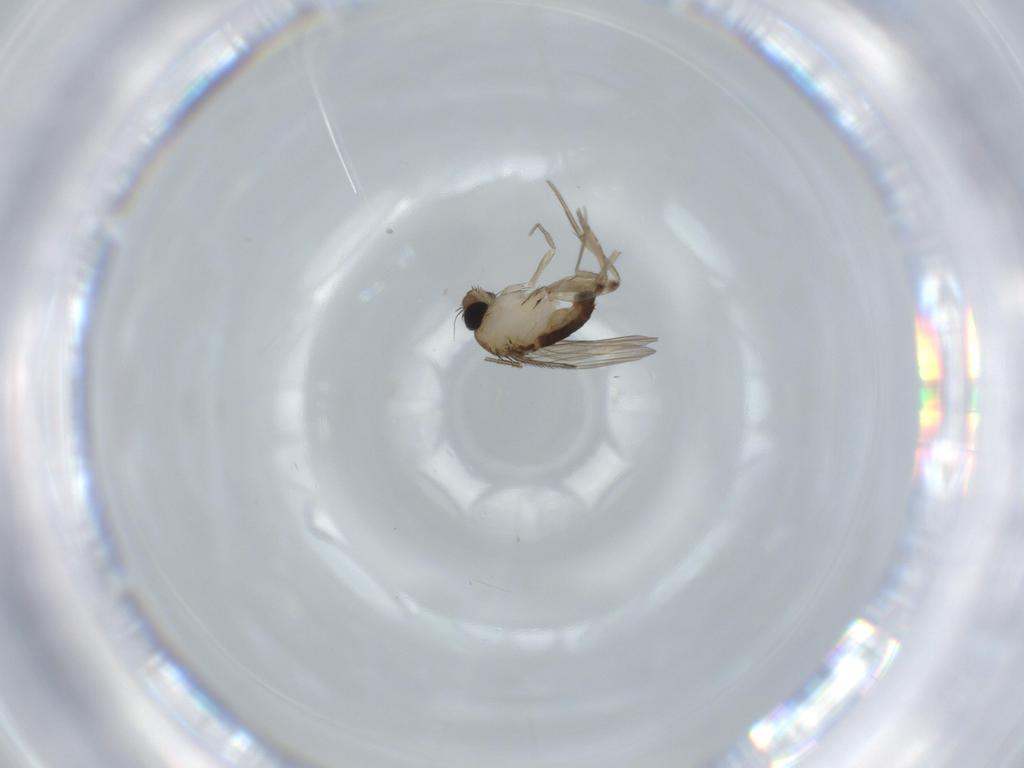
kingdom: Animalia
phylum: Arthropoda
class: Insecta
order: Diptera
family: Phoridae
